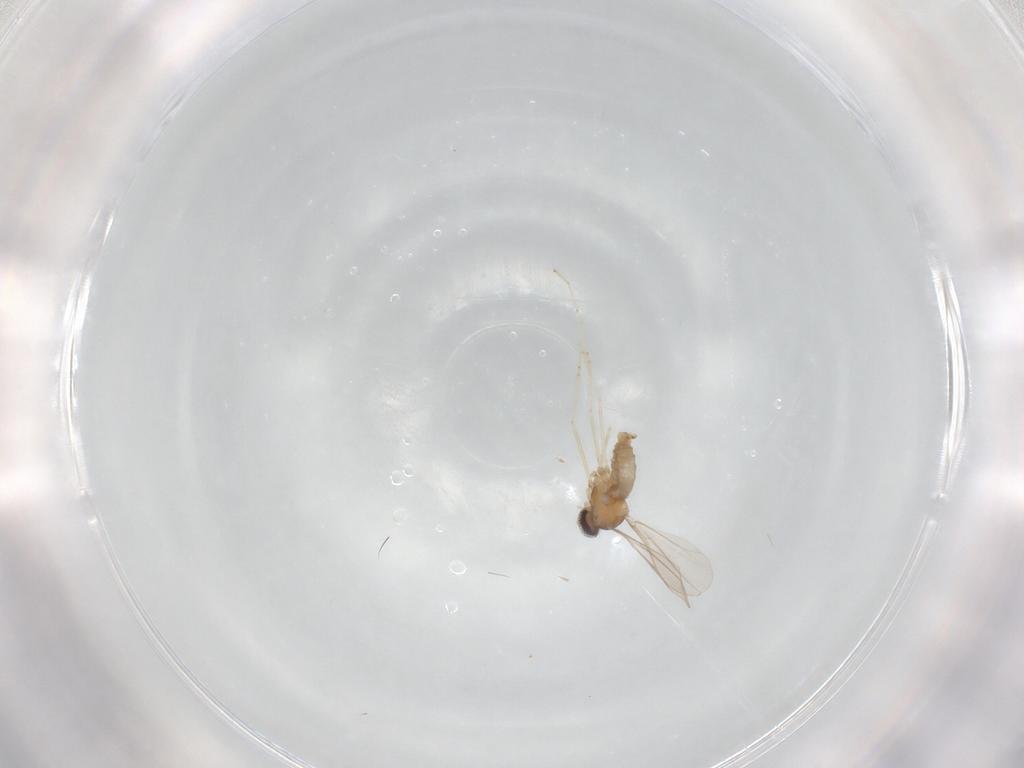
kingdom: Animalia
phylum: Arthropoda
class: Insecta
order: Diptera
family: Cecidomyiidae
